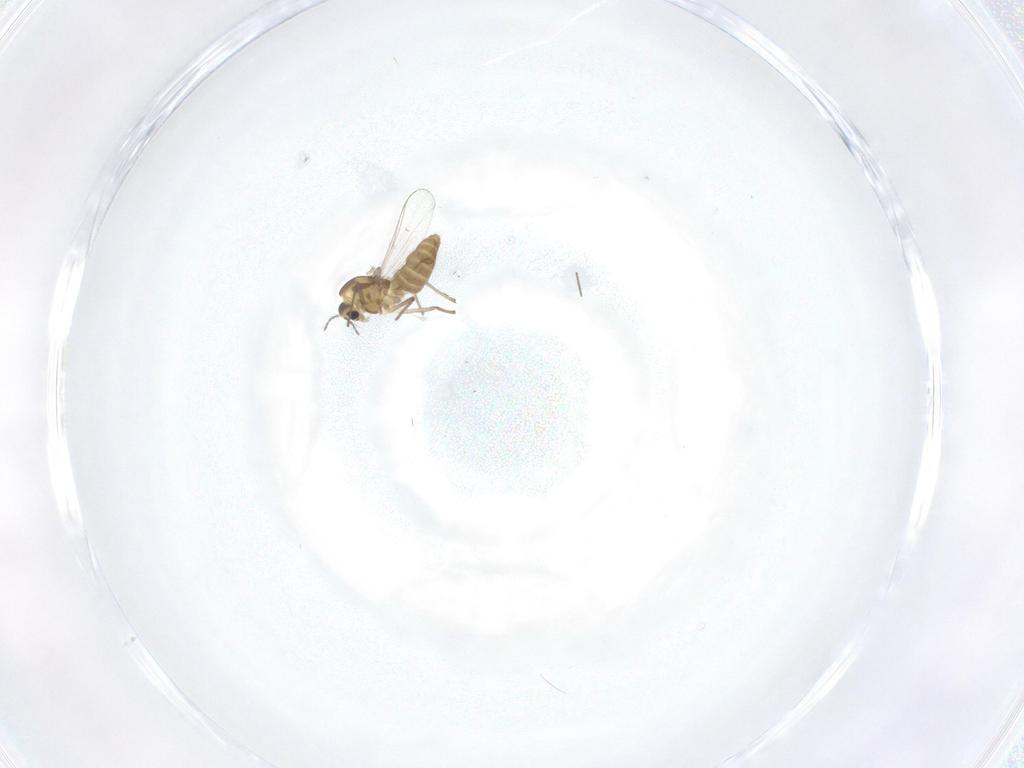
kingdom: Animalia
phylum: Arthropoda
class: Insecta
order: Diptera
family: Chironomidae
